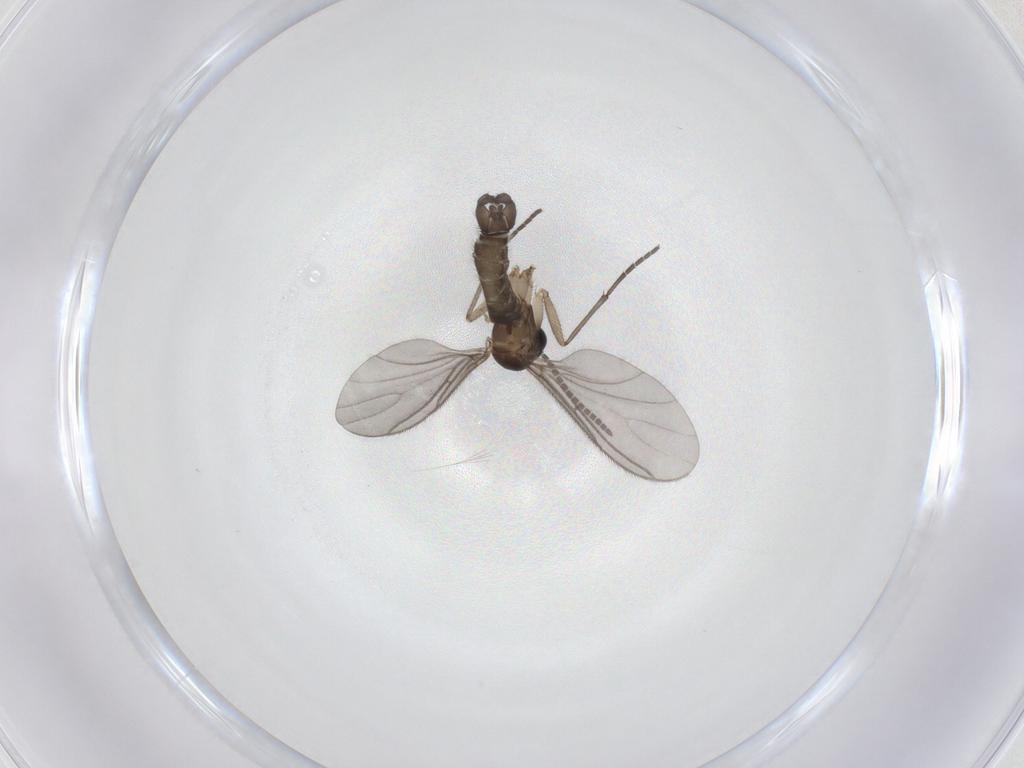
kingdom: Animalia
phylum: Arthropoda
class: Insecta
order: Diptera
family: Sciaridae
